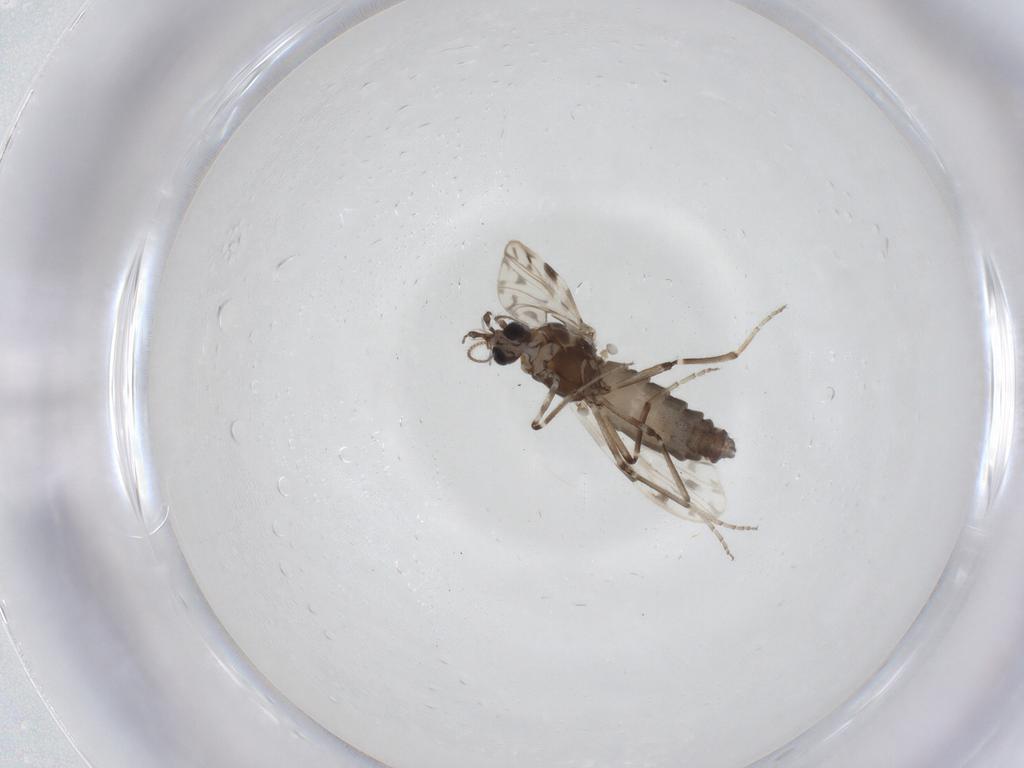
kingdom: Animalia
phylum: Arthropoda
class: Insecta
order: Diptera
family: Ceratopogonidae
